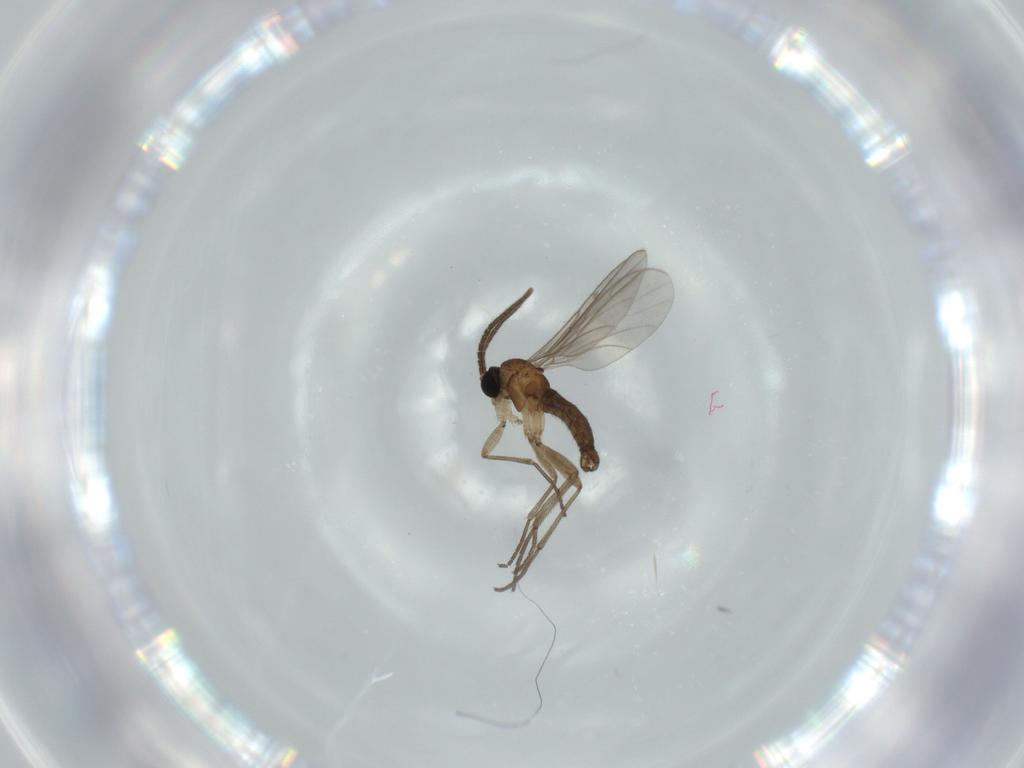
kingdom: Animalia
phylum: Arthropoda
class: Insecta
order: Diptera
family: Sciaridae
